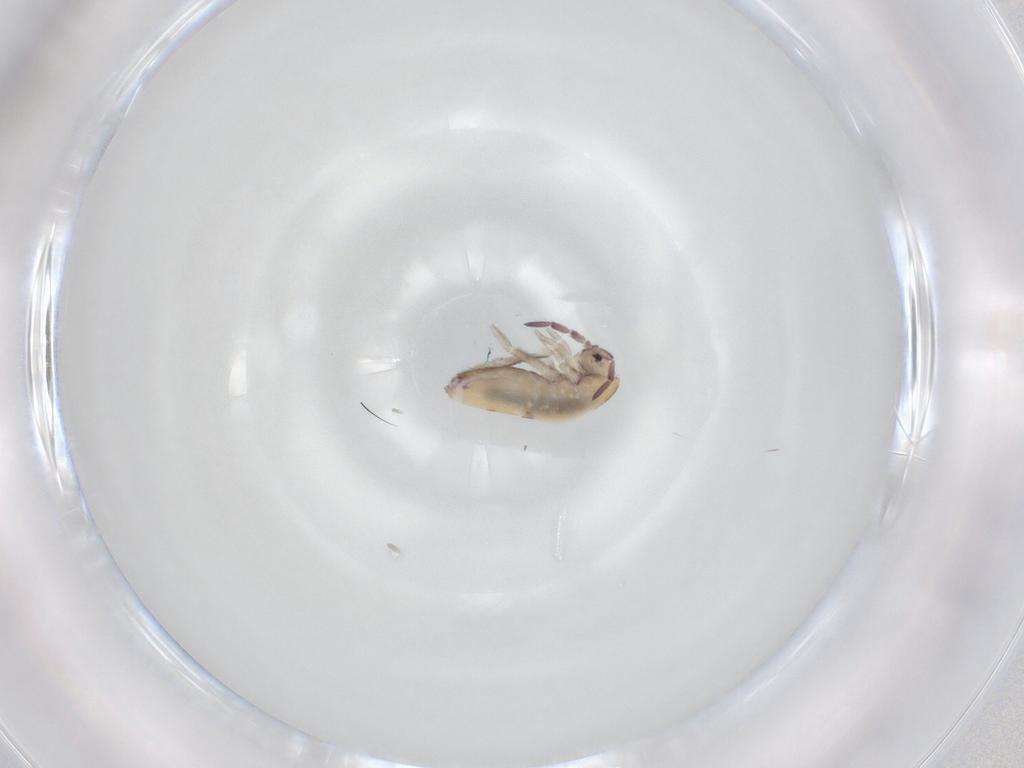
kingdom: Animalia
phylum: Arthropoda
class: Collembola
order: Entomobryomorpha
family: Entomobryidae
